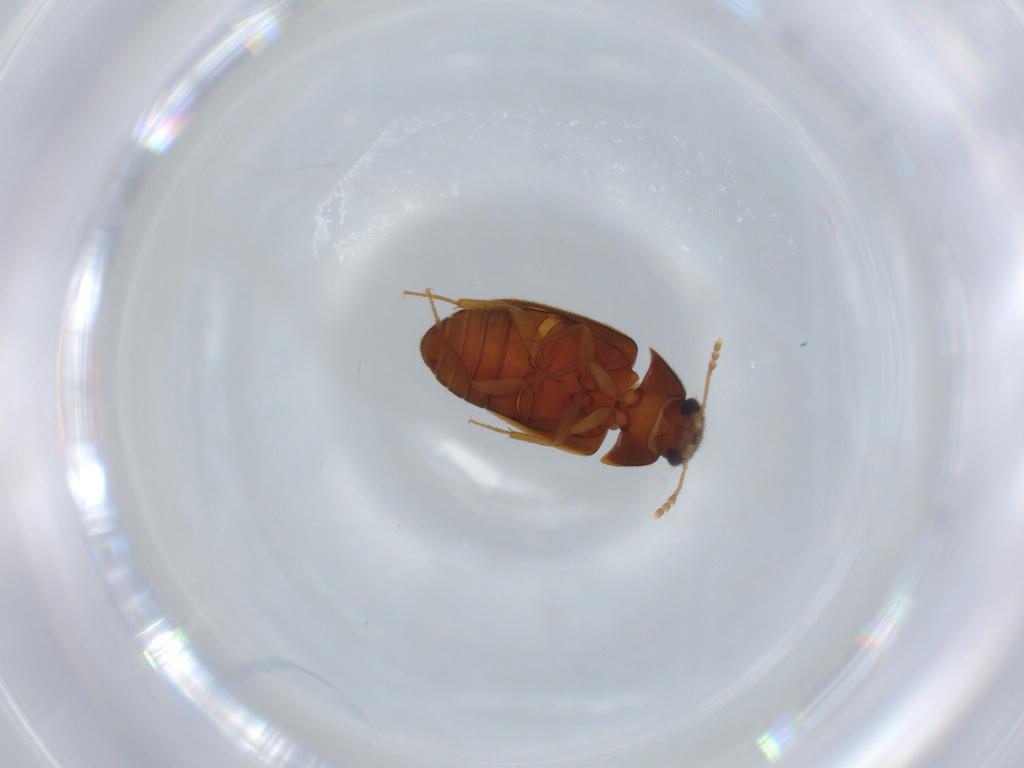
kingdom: Animalia
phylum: Arthropoda
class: Insecta
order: Coleoptera
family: Mycetophagidae
